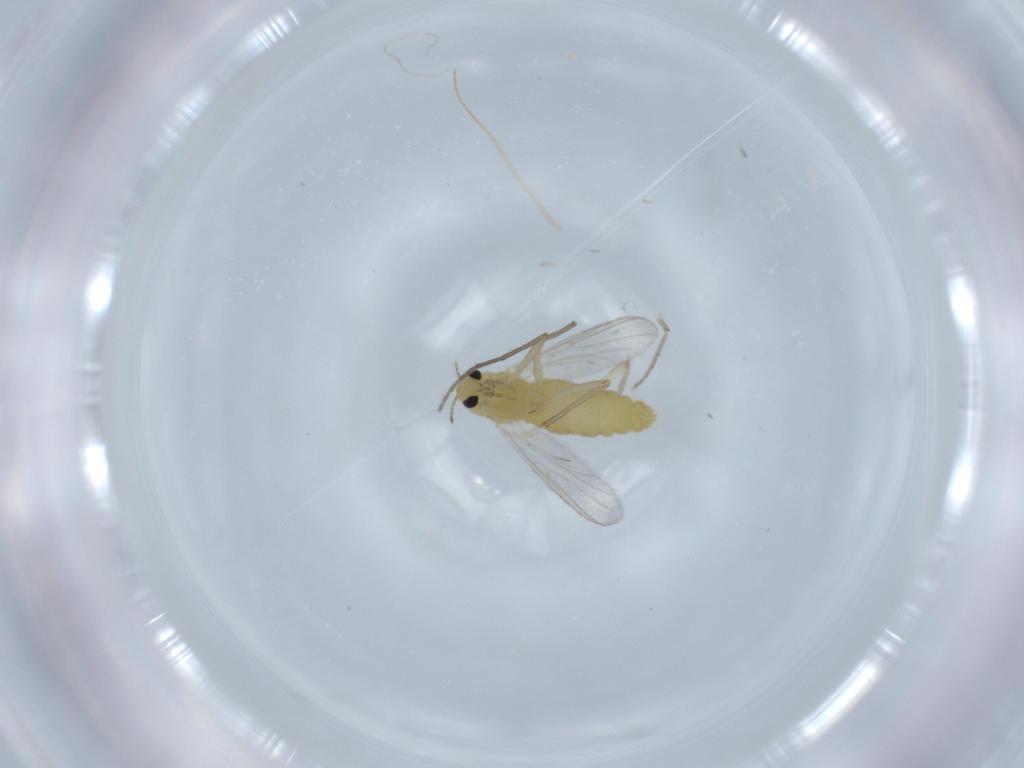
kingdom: Animalia
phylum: Arthropoda
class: Insecta
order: Diptera
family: Chironomidae
